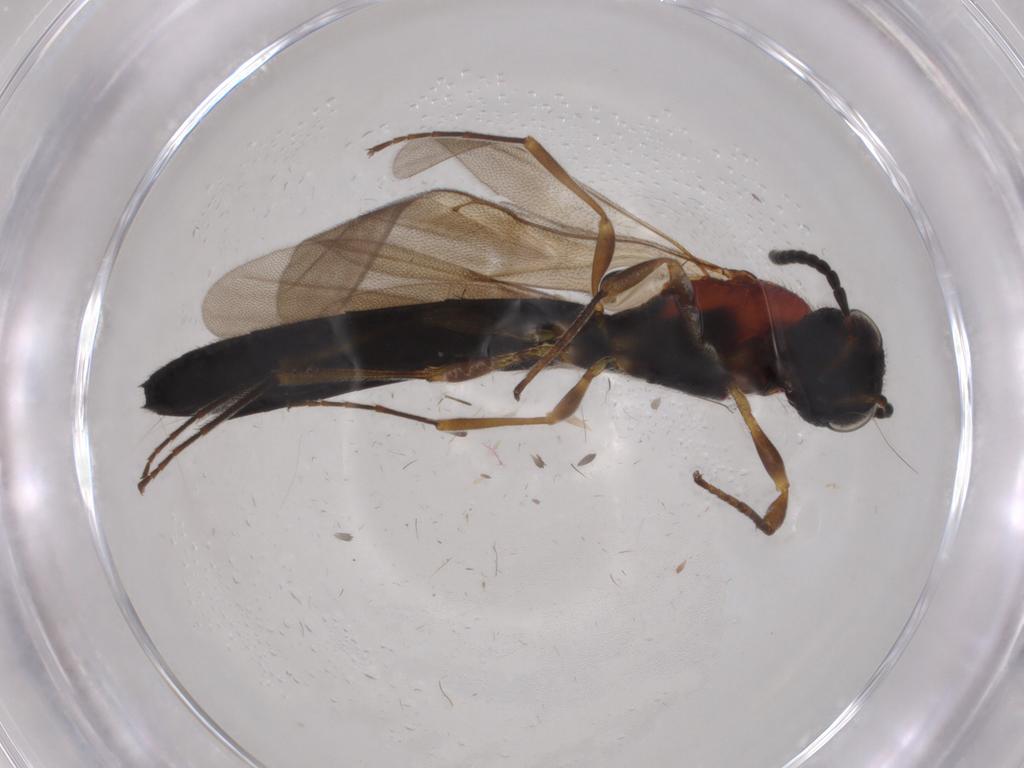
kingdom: Animalia
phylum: Arthropoda
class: Insecta
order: Hymenoptera
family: Scelionidae
